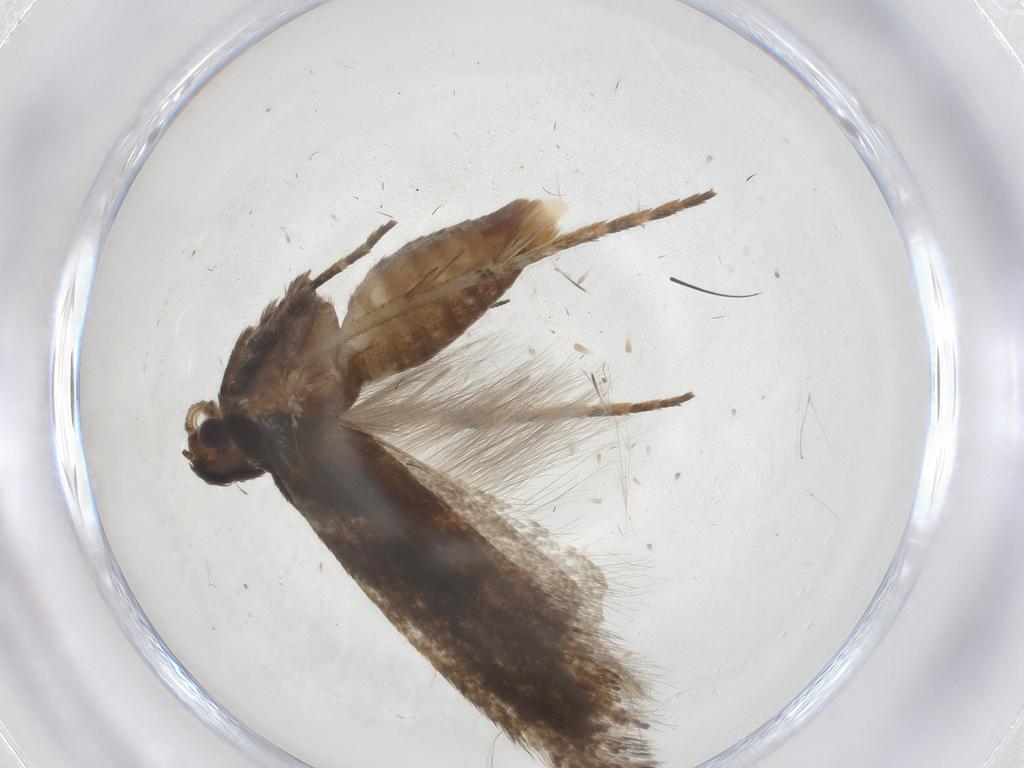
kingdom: Animalia
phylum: Arthropoda
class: Insecta
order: Lepidoptera
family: Gelechiidae
